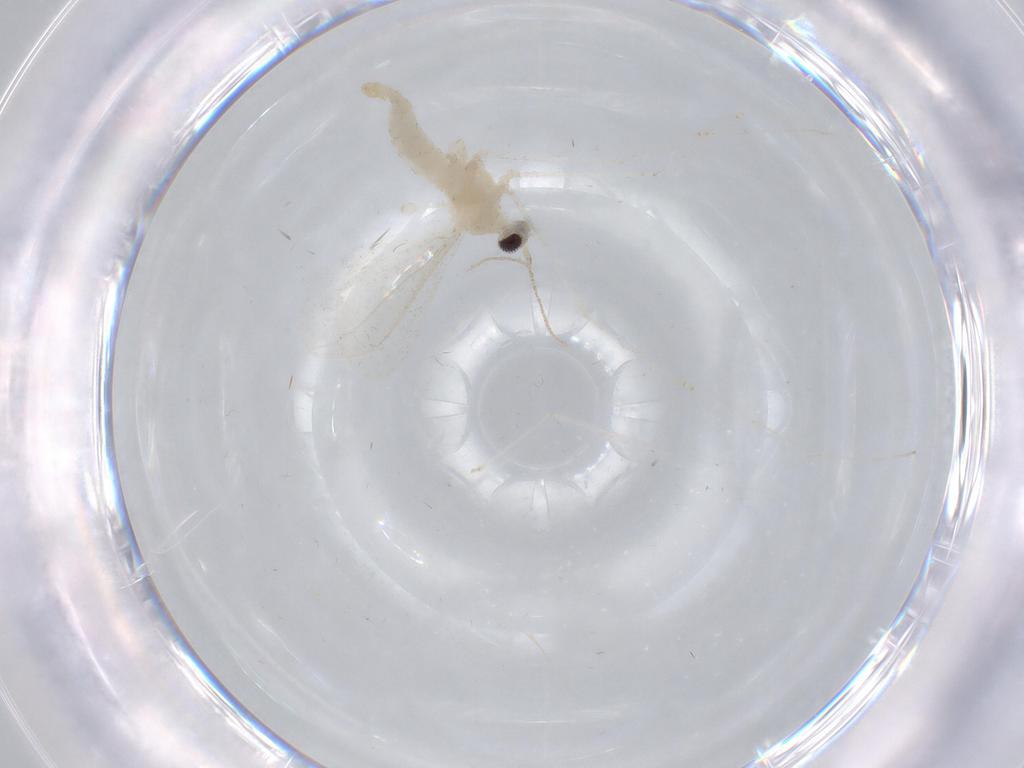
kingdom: Animalia
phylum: Arthropoda
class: Insecta
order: Diptera
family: Cecidomyiidae
